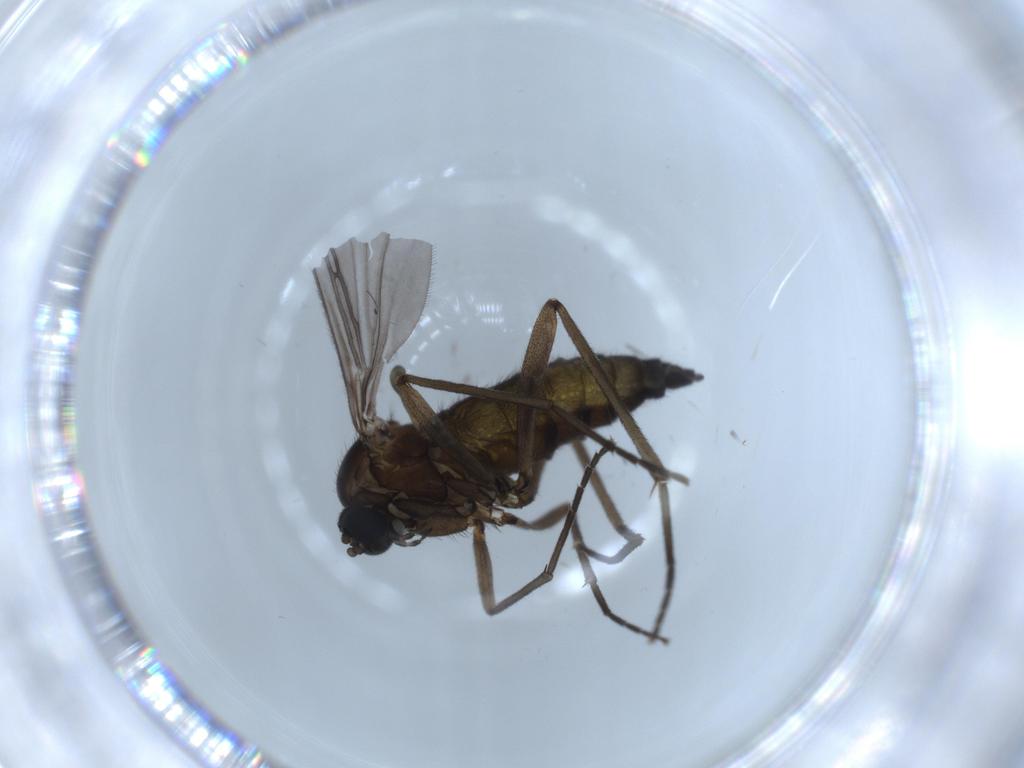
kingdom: Animalia
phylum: Arthropoda
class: Insecta
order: Diptera
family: Sciaridae
